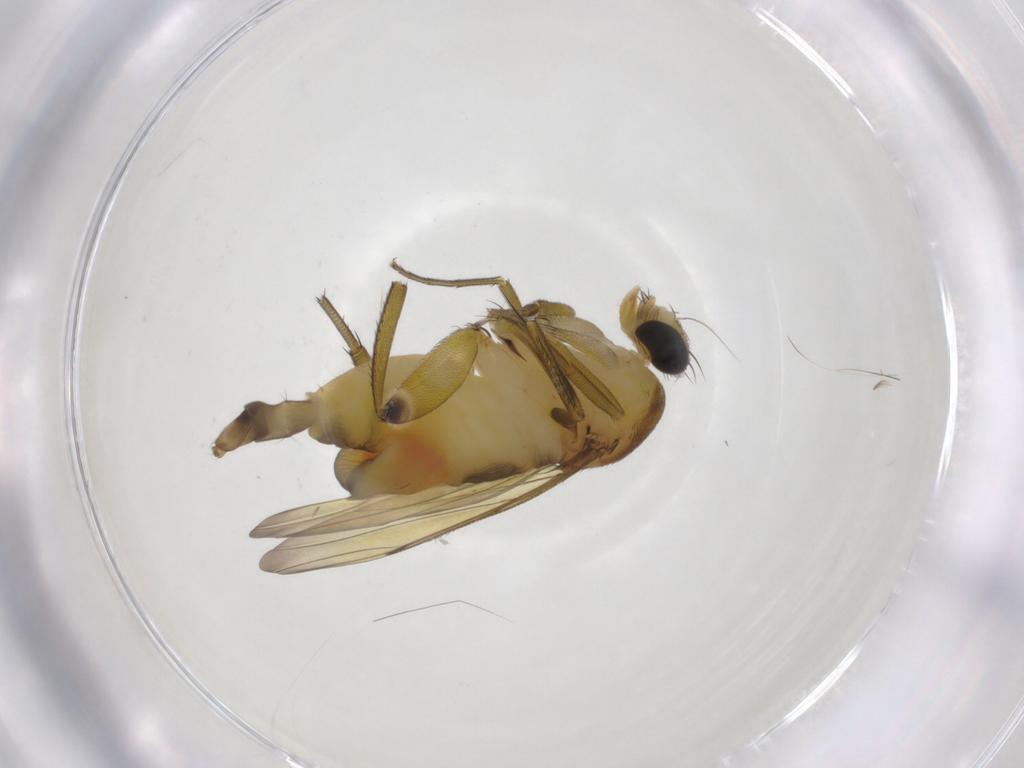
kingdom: Animalia
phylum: Arthropoda
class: Insecta
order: Diptera
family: Phoridae
